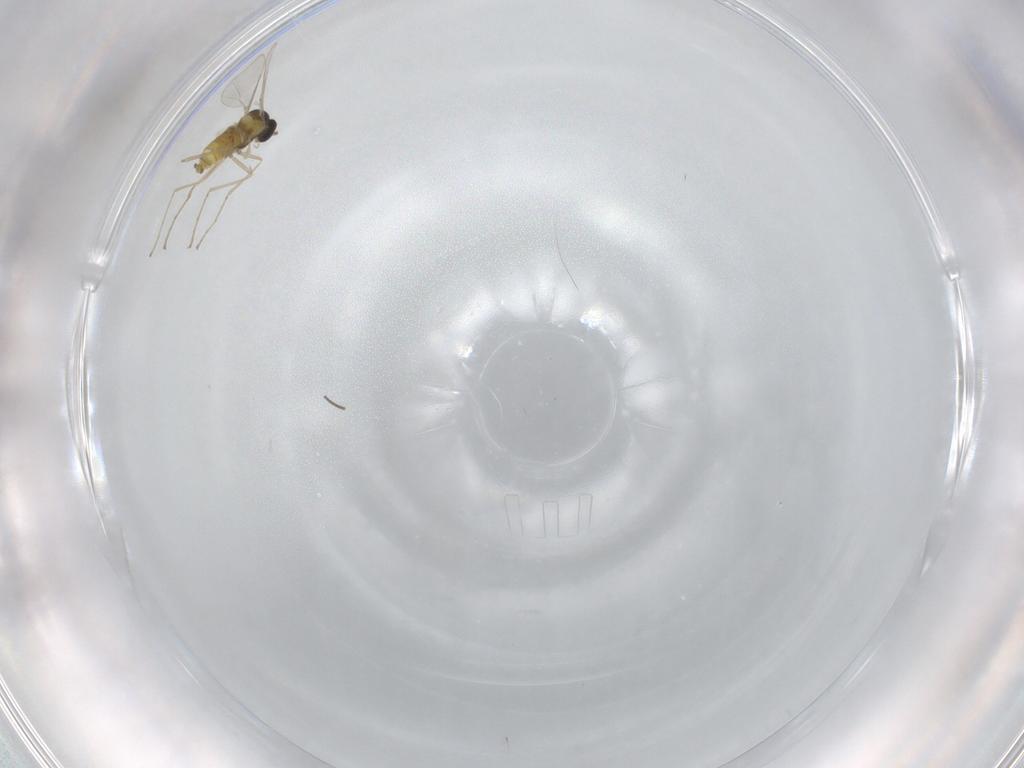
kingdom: Animalia
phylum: Arthropoda
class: Insecta
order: Diptera
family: Cecidomyiidae
